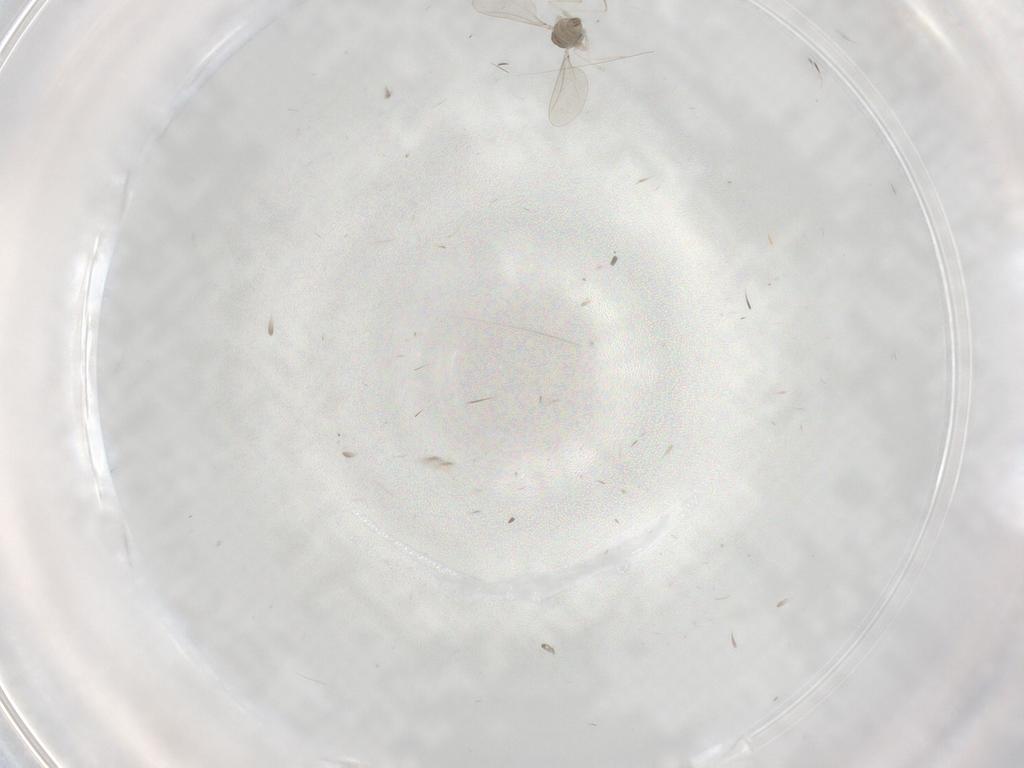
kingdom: Animalia
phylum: Arthropoda
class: Insecta
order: Diptera
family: Cecidomyiidae
